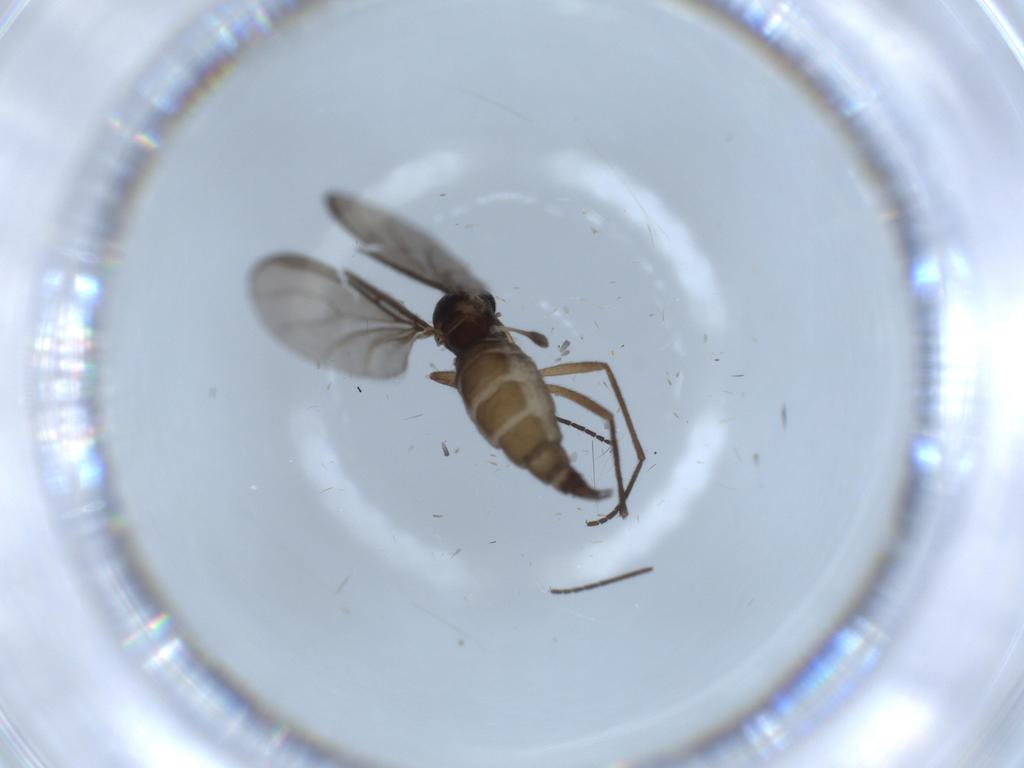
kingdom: Animalia
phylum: Arthropoda
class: Insecta
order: Diptera
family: Sciaridae
